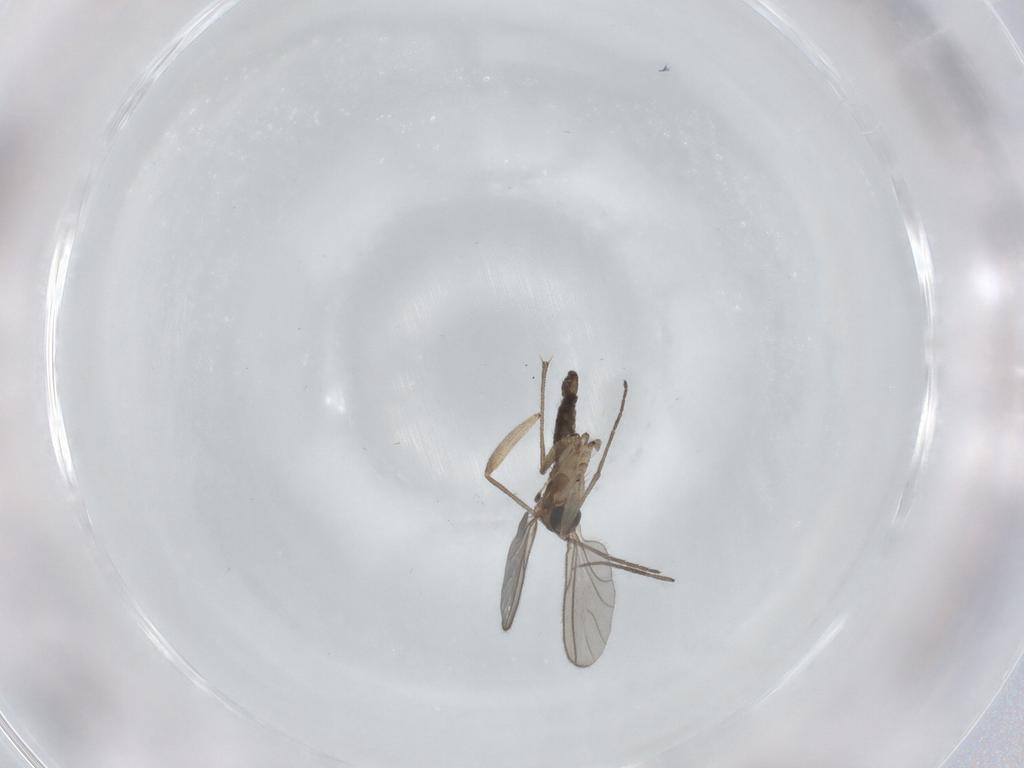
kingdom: Animalia
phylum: Arthropoda
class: Insecta
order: Diptera
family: Sciaridae
